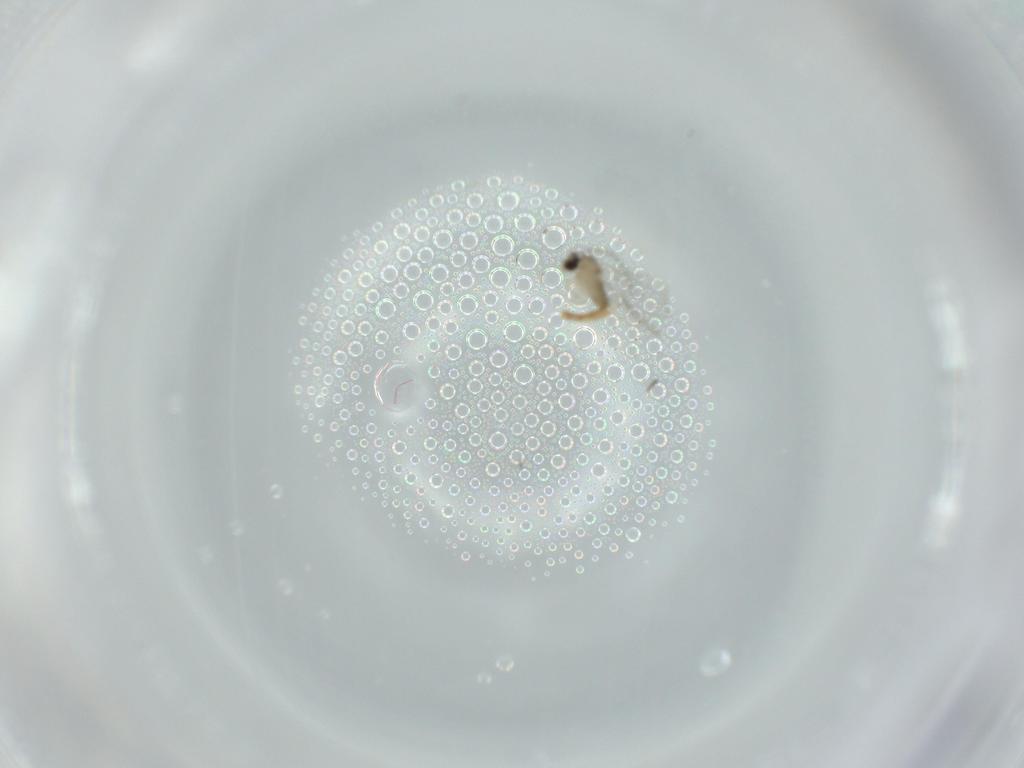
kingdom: Animalia
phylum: Arthropoda
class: Insecta
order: Diptera
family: Cecidomyiidae
